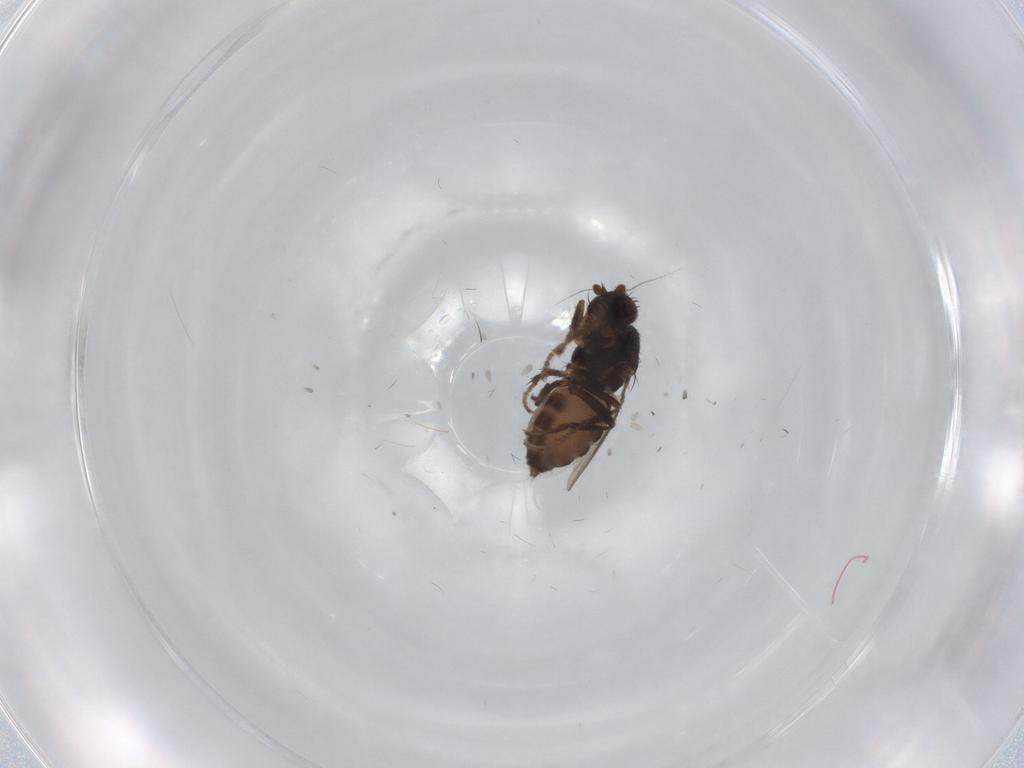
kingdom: Animalia
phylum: Arthropoda
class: Insecta
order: Diptera
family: Sphaeroceridae
